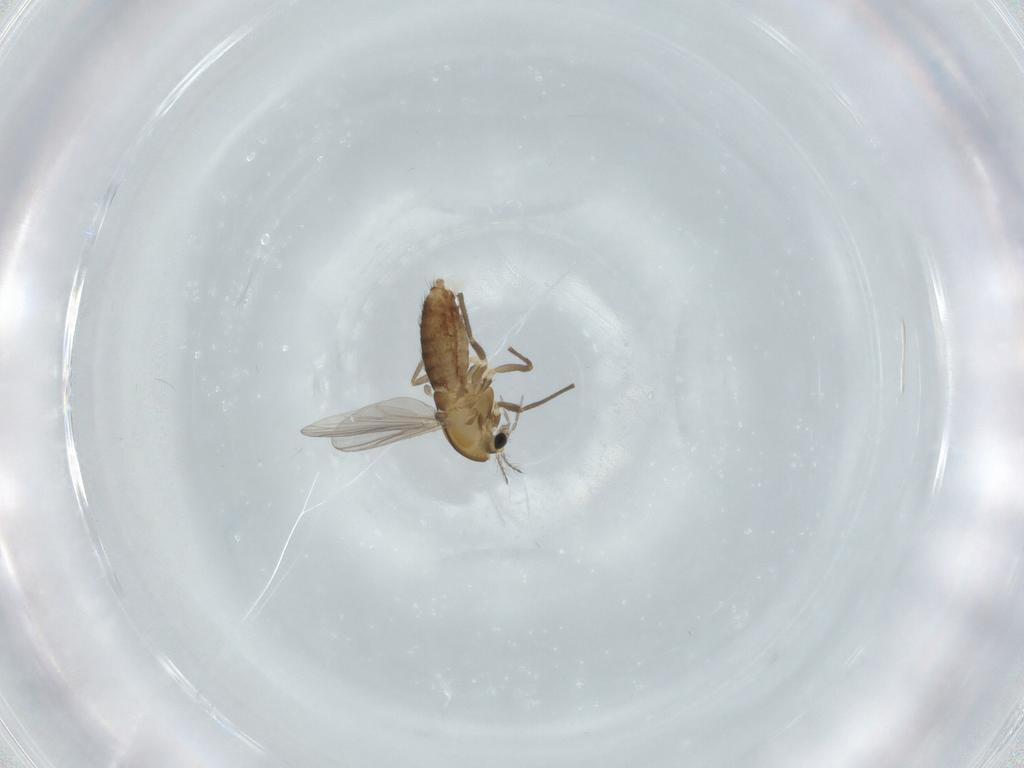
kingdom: Animalia
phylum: Arthropoda
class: Insecta
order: Diptera
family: Chironomidae
